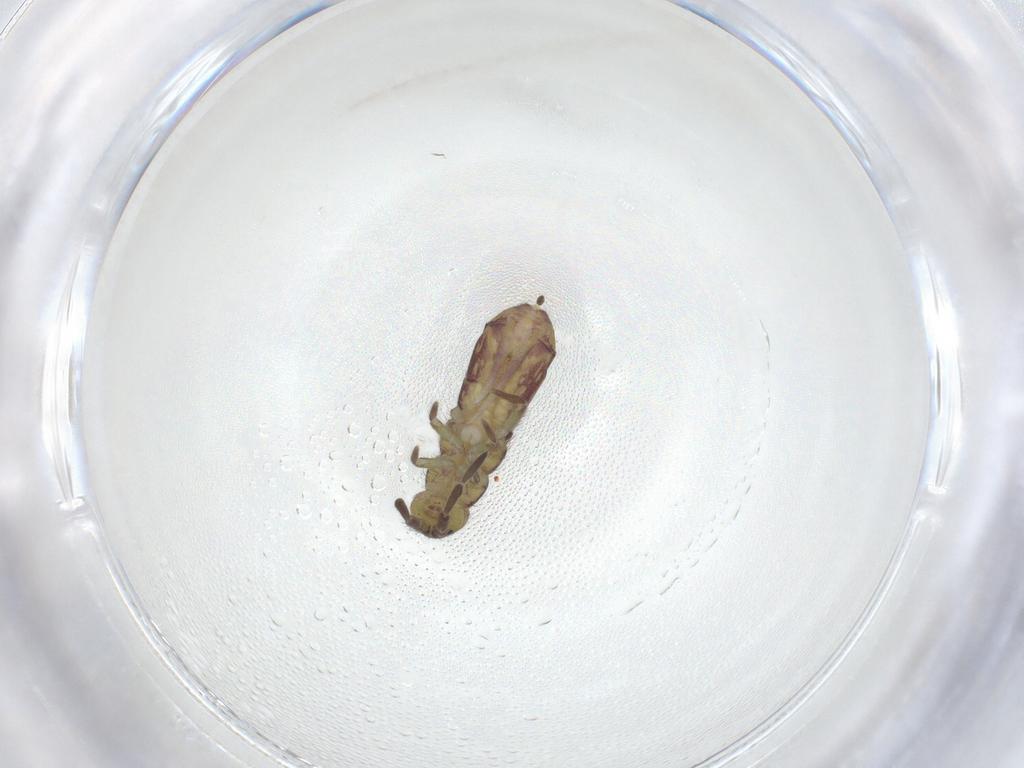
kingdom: Animalia
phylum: Arthropoda
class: Collembola
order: Entomobryomorpha
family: Isotomidae
